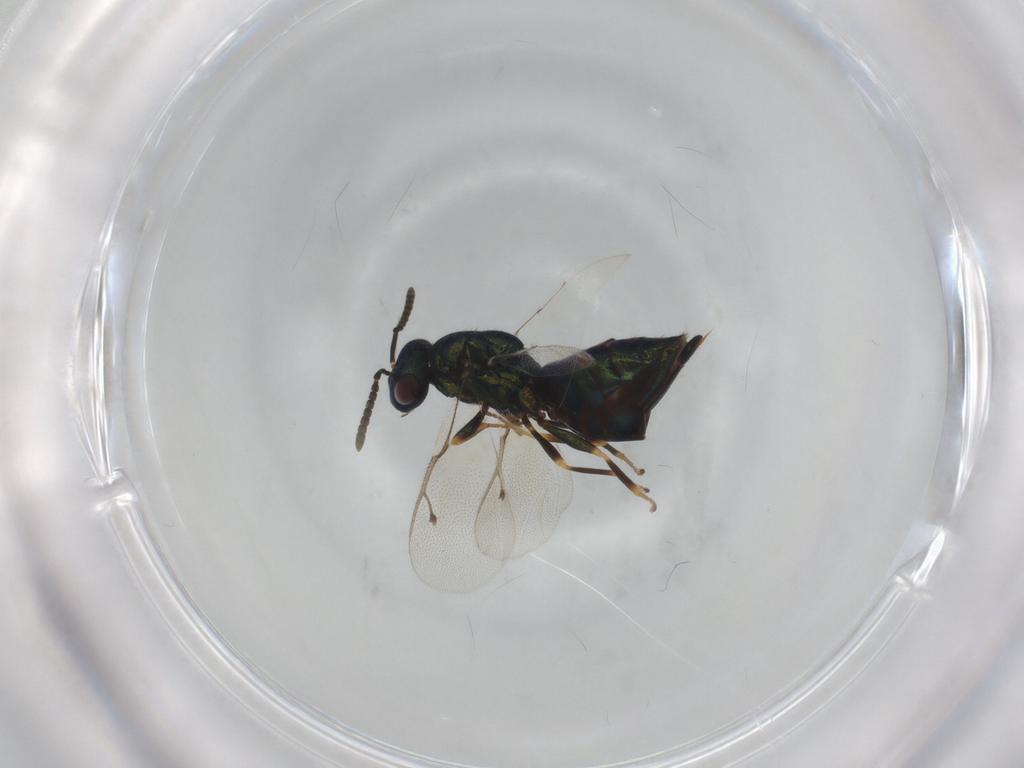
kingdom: Animalia
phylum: Arthropoda
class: Insecta
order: Hymenoptera
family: Pteromalidae
